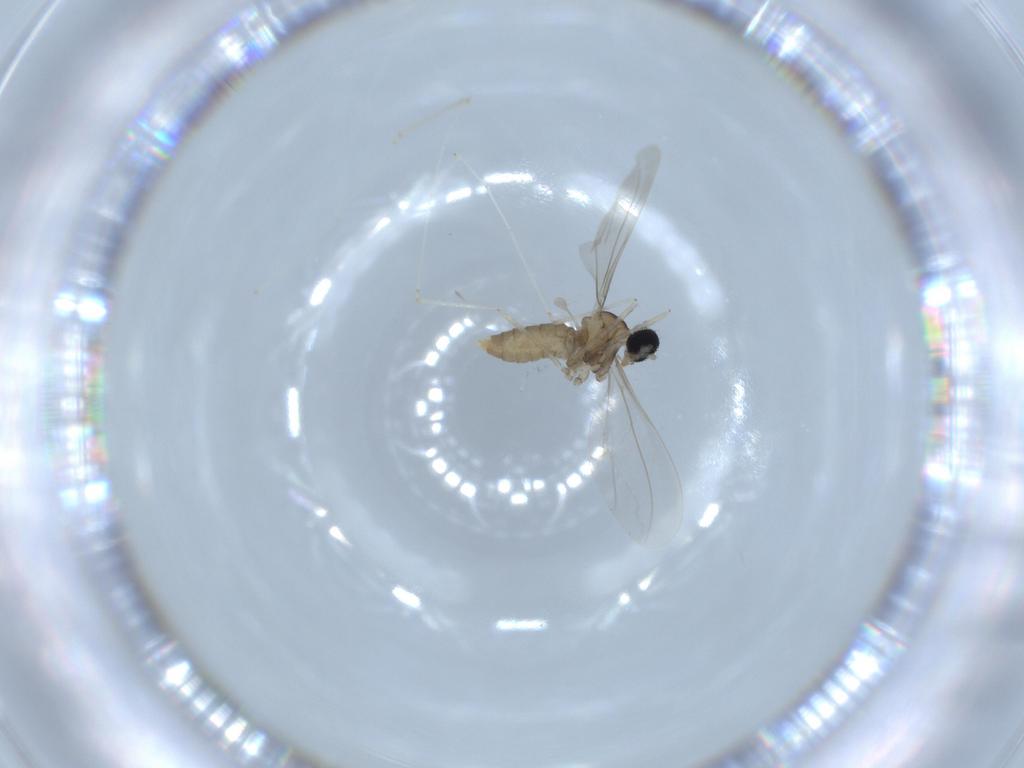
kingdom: Animalia
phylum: Arthropoda
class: Insecta
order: Diptera
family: Cecidomyiidae
